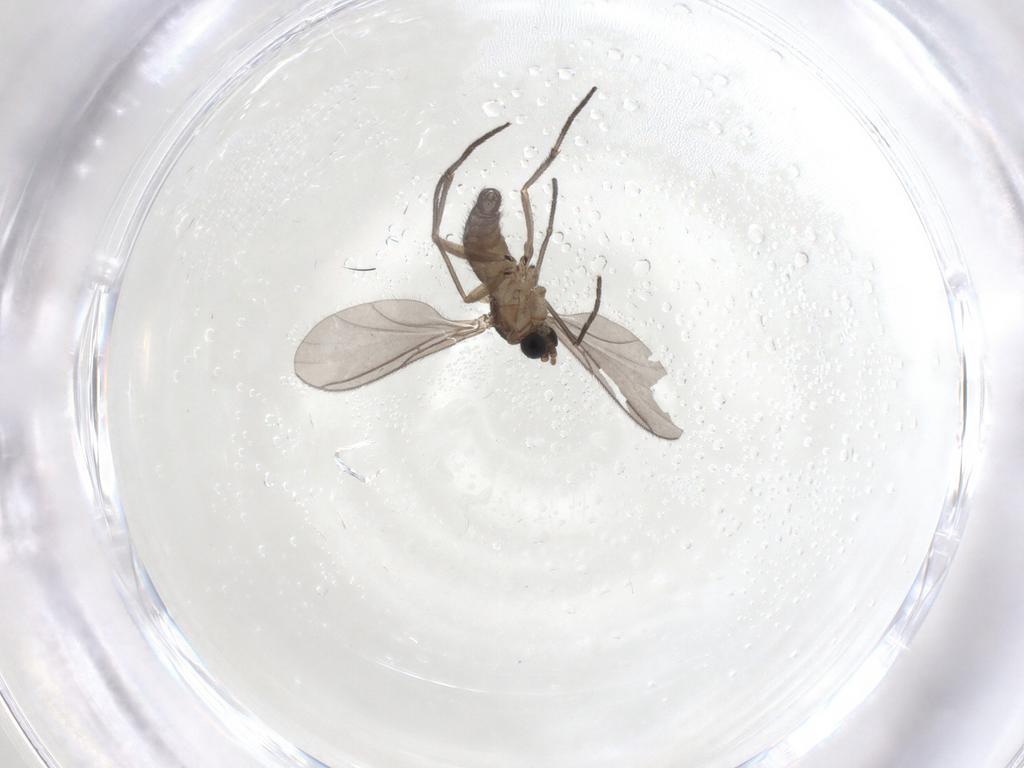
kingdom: Animalia
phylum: Arthropoda
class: Insecta
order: Diptera
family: Sciaridae
